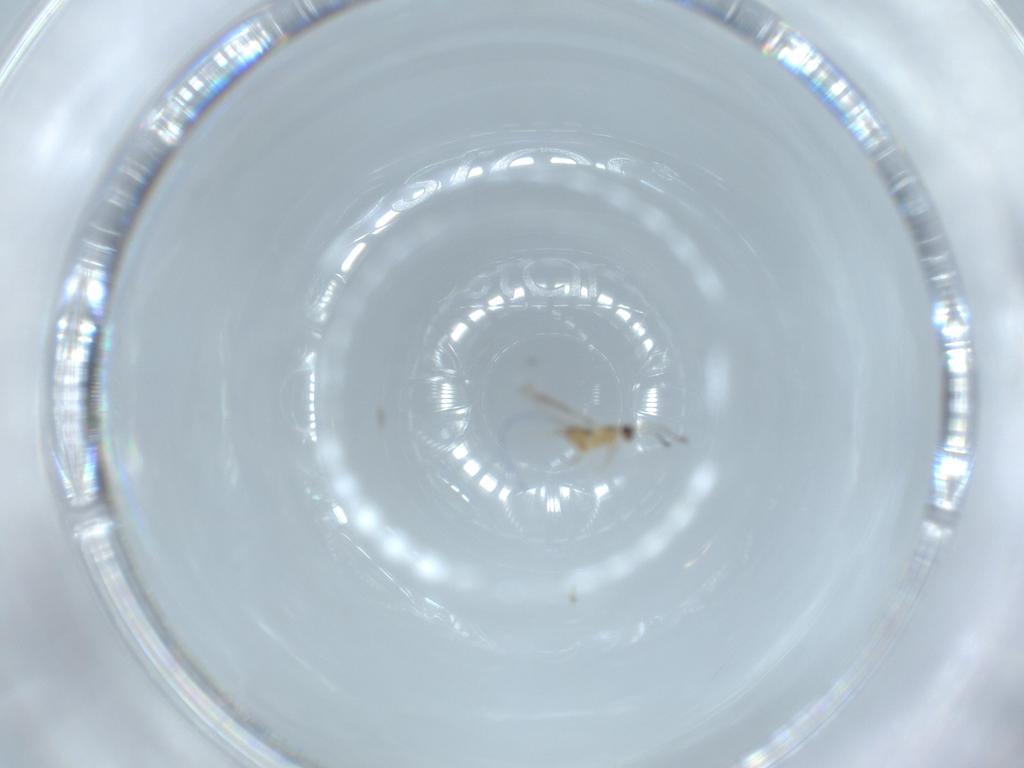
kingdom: Animalia
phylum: Arthropoda
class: Insecta
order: Hymenoptera
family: Mymaridae
